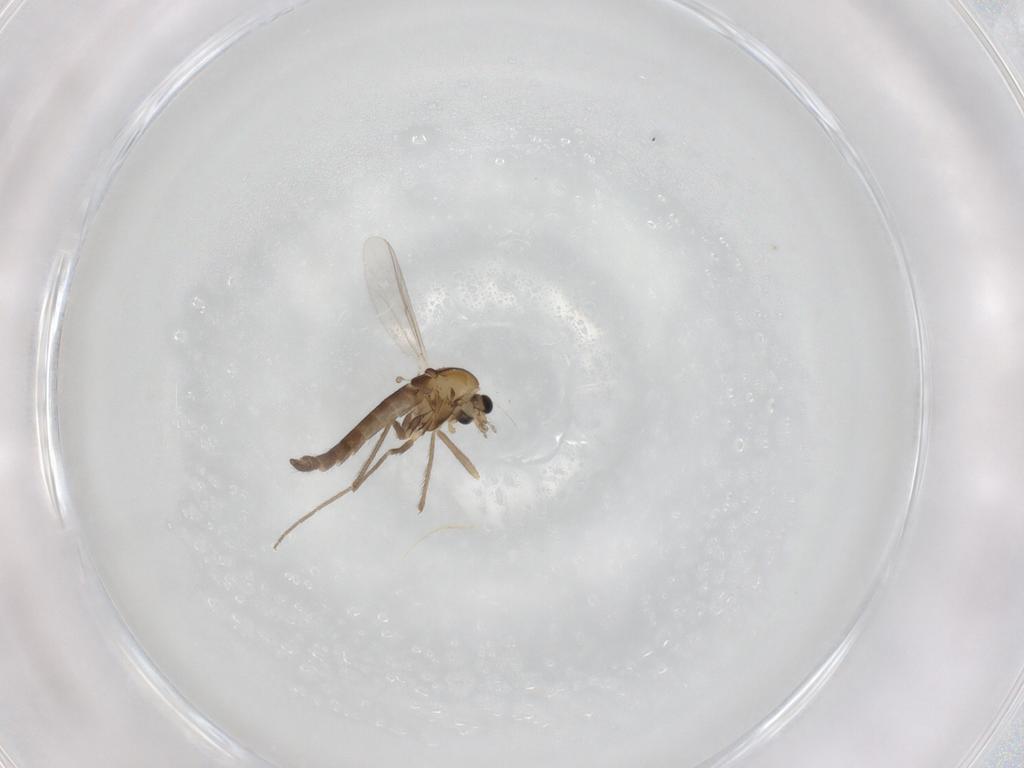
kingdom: Animalia
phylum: Arthropoda
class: Insecta
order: Diptera
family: Chironomidae
